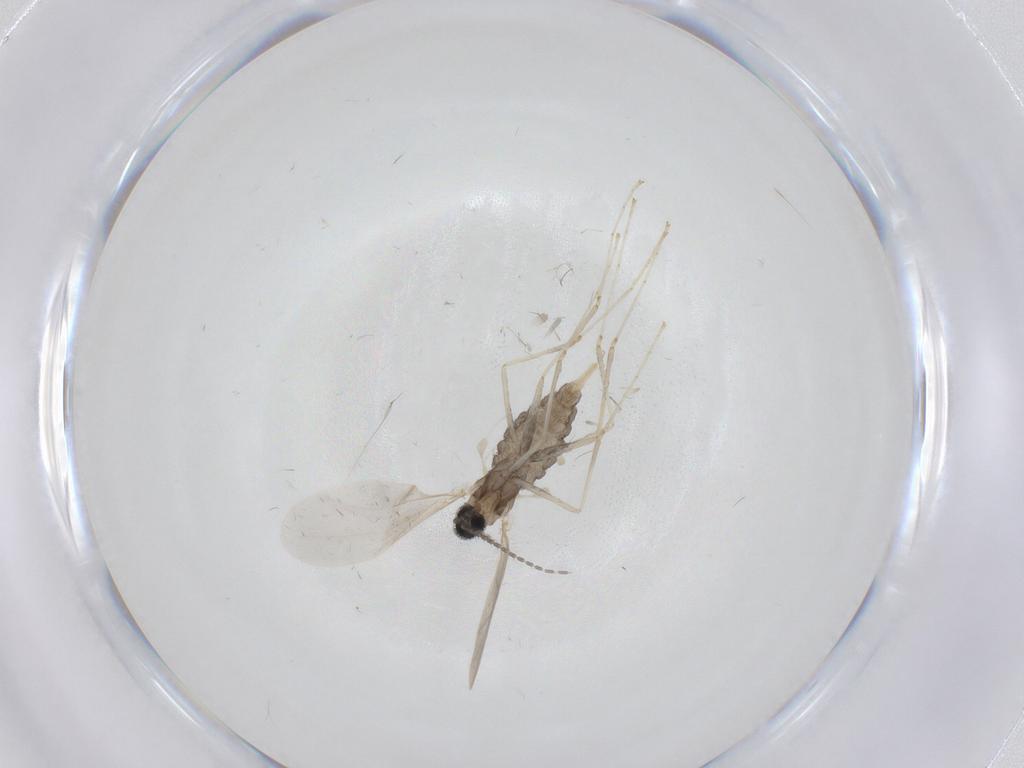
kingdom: Animalia
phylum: Arthropoda
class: Insecta
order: Diptera
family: Cecidomyiidae
